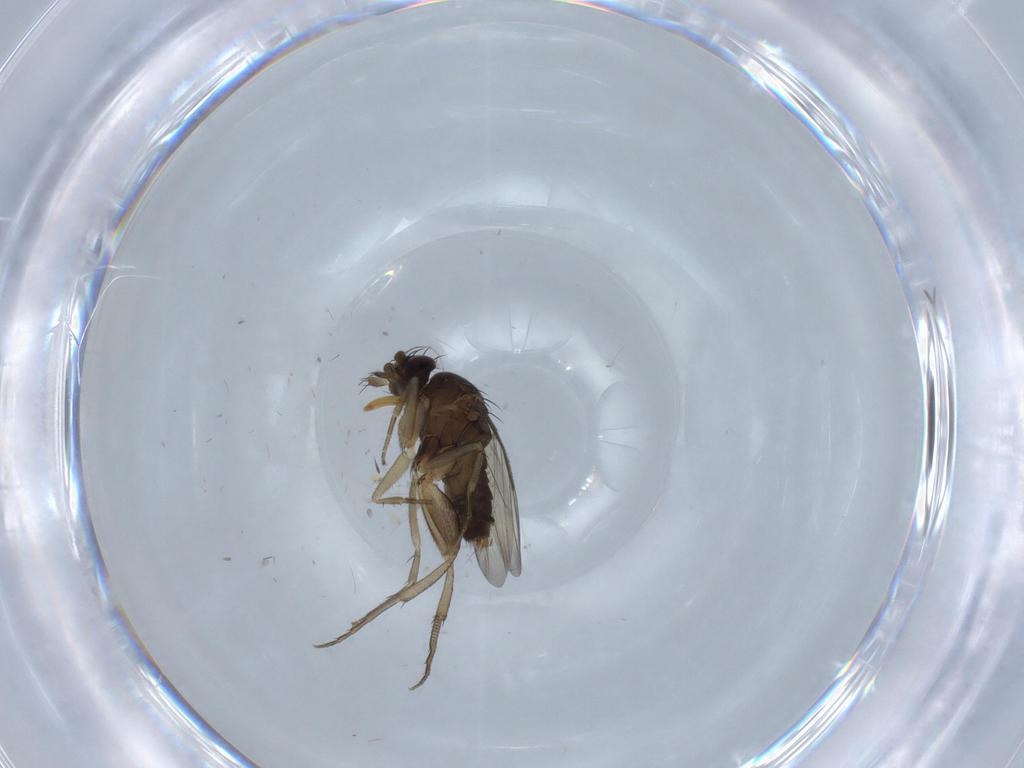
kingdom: Animalia
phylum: Arthropoda
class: Insecta
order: Diptera
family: Phoridae
